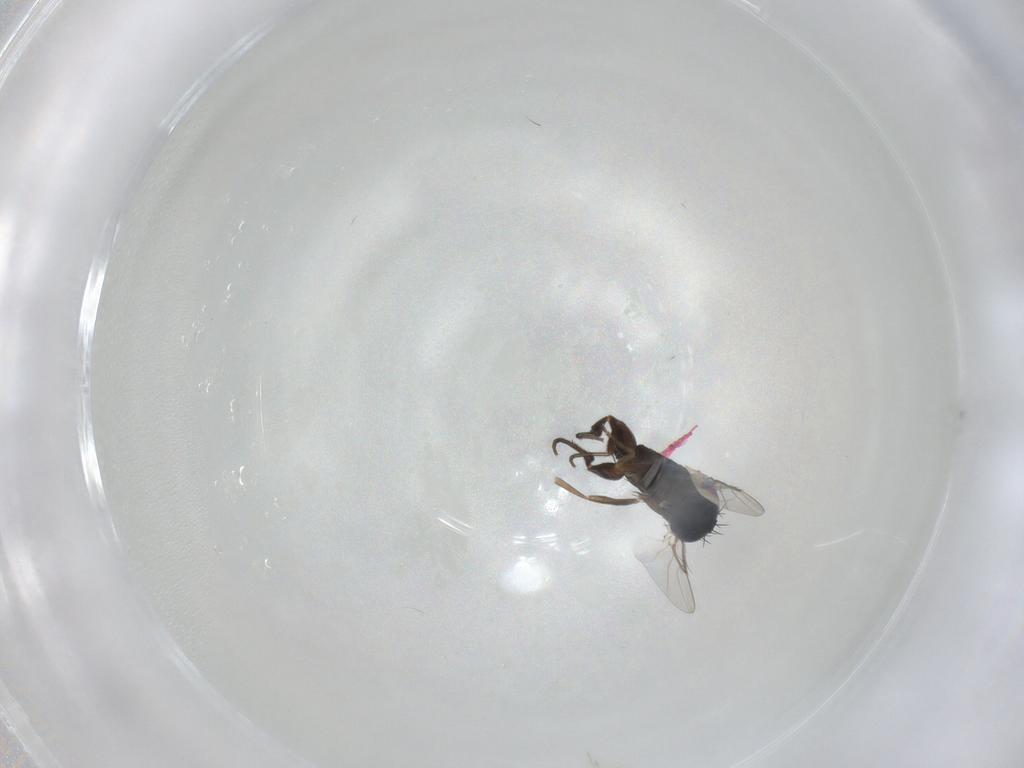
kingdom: Animalia
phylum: Arthropoda
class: Insecta
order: Diptera
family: Phoridae
